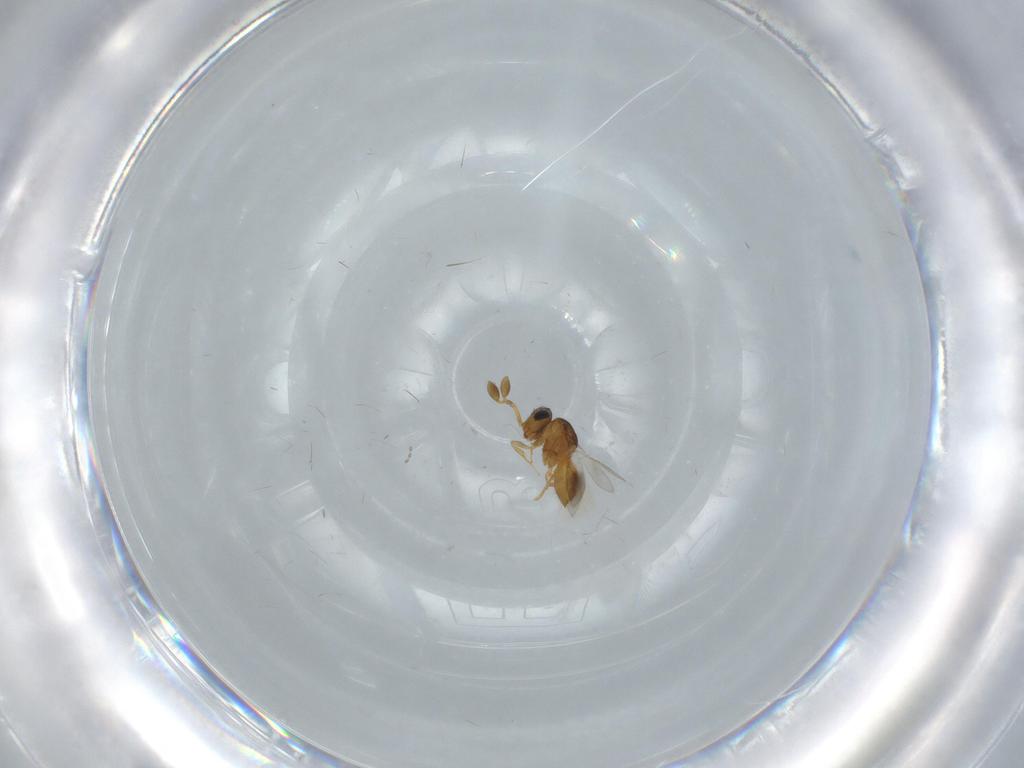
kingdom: Animalia
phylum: Arthropoda
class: Insecta
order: Hymenoptera
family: Scelionidae
